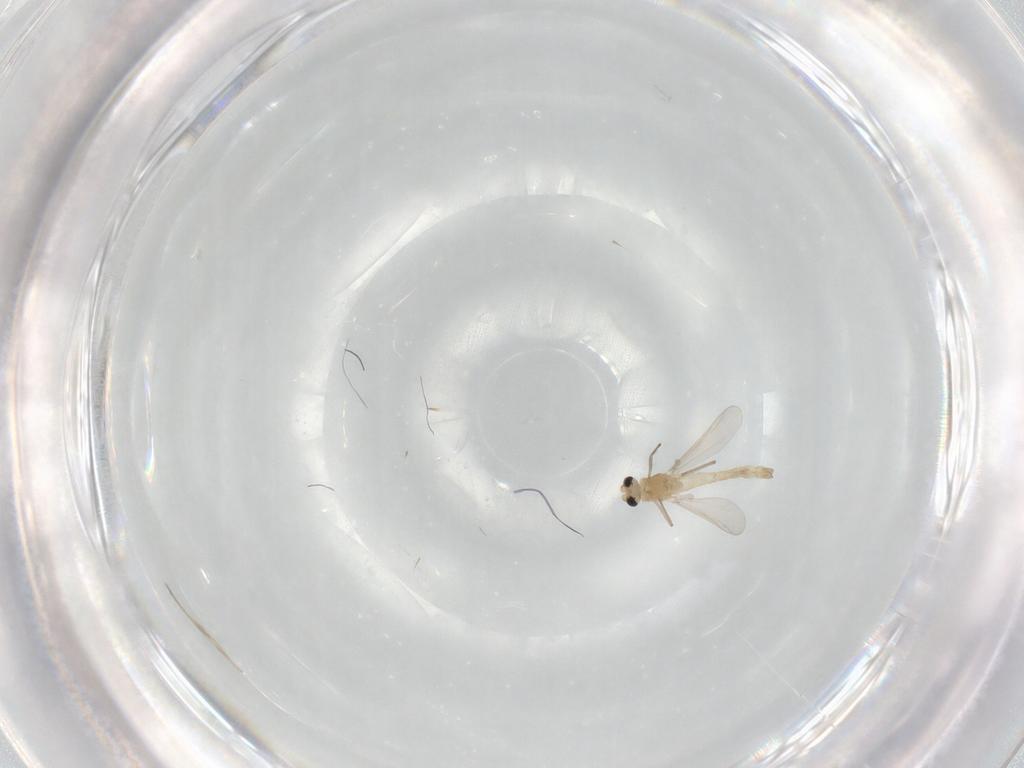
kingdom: Animalia
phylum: Arthropoda
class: Insecta
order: Diptera
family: Chironomidae
